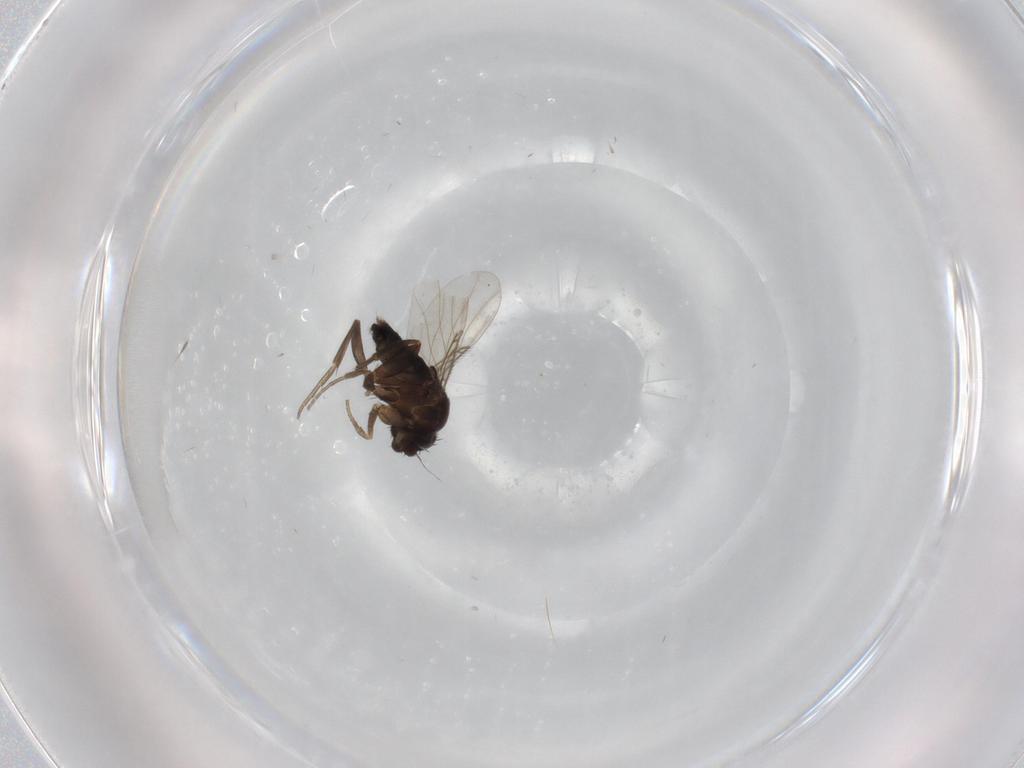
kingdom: Animalia
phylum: Arthropoda
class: Insecta
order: Diptera
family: Phoridae
